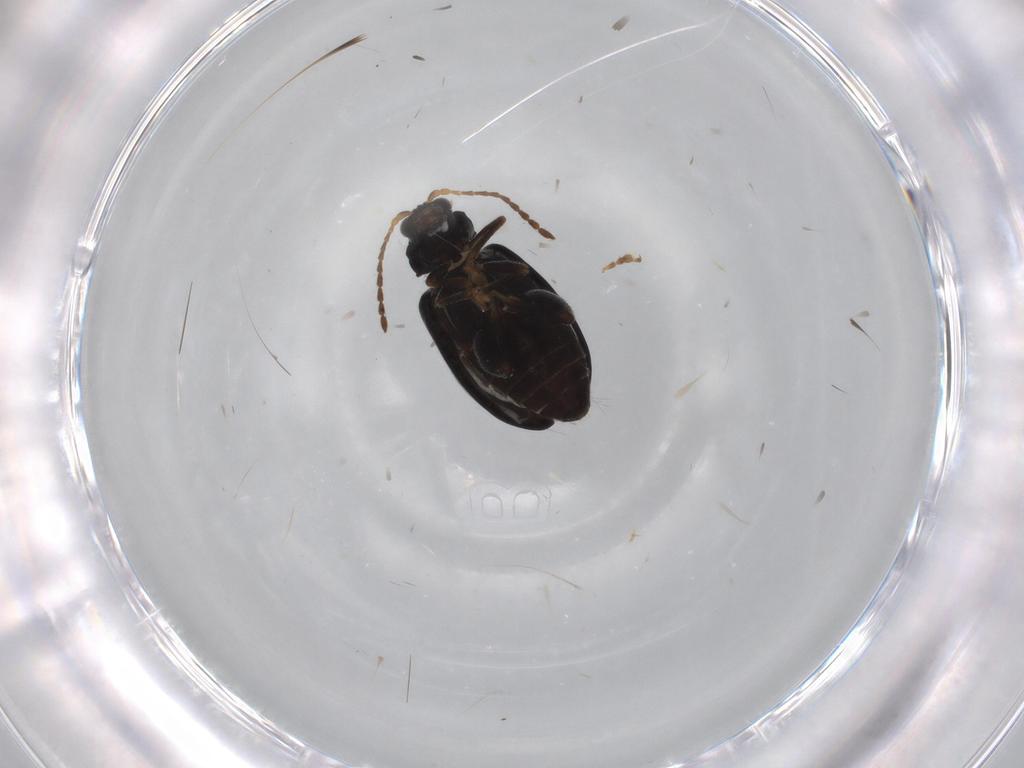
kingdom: Animalia
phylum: Arthropoda
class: Insecta
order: Coleoptera
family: Chrysomelidae
